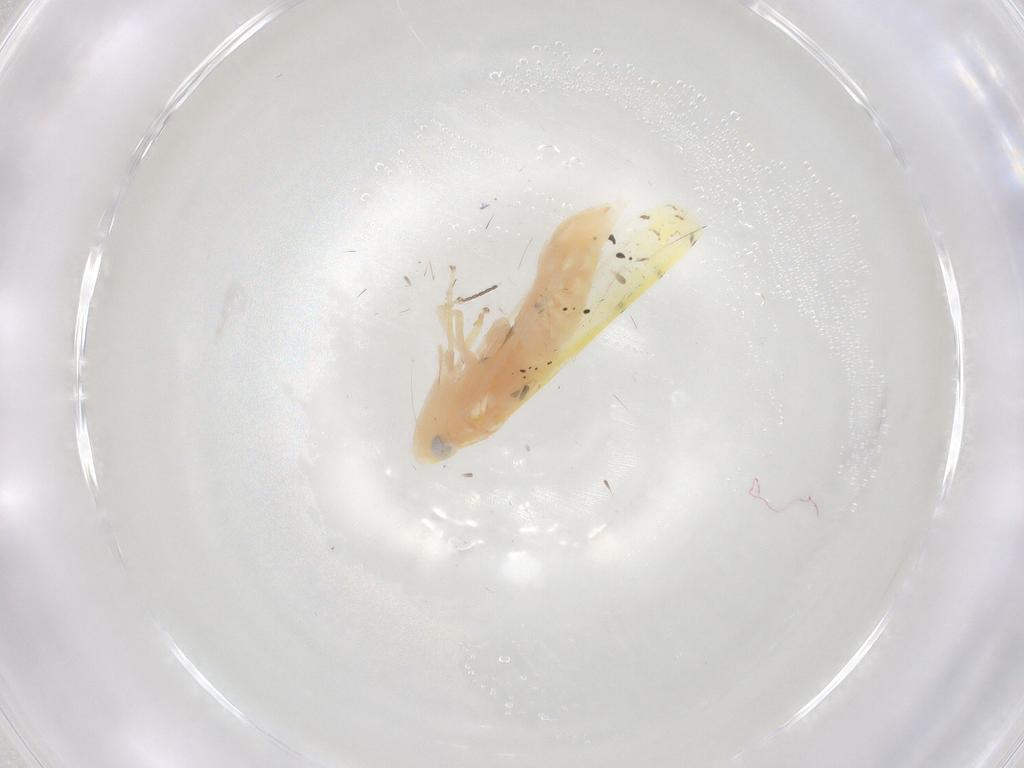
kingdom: Animalia
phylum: Arthropoda
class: Insecta
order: Hemiptera
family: Cicadellidae
